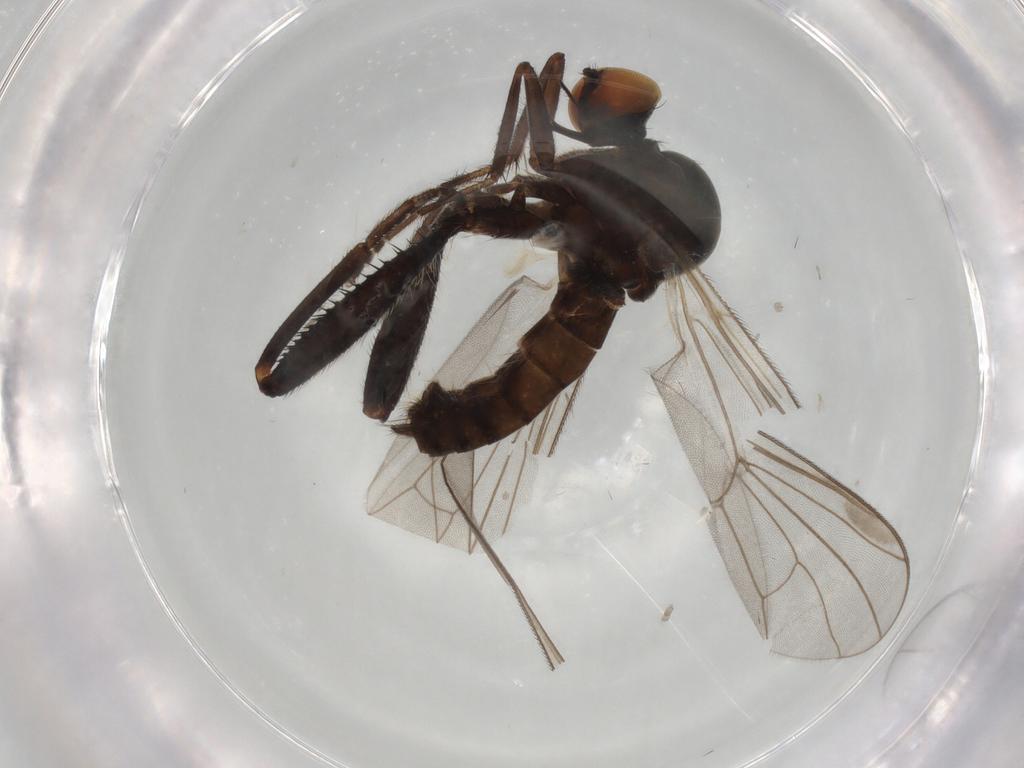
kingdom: Animalia
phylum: Arthropoda
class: Insecta
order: Diptera
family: Hybotidae
